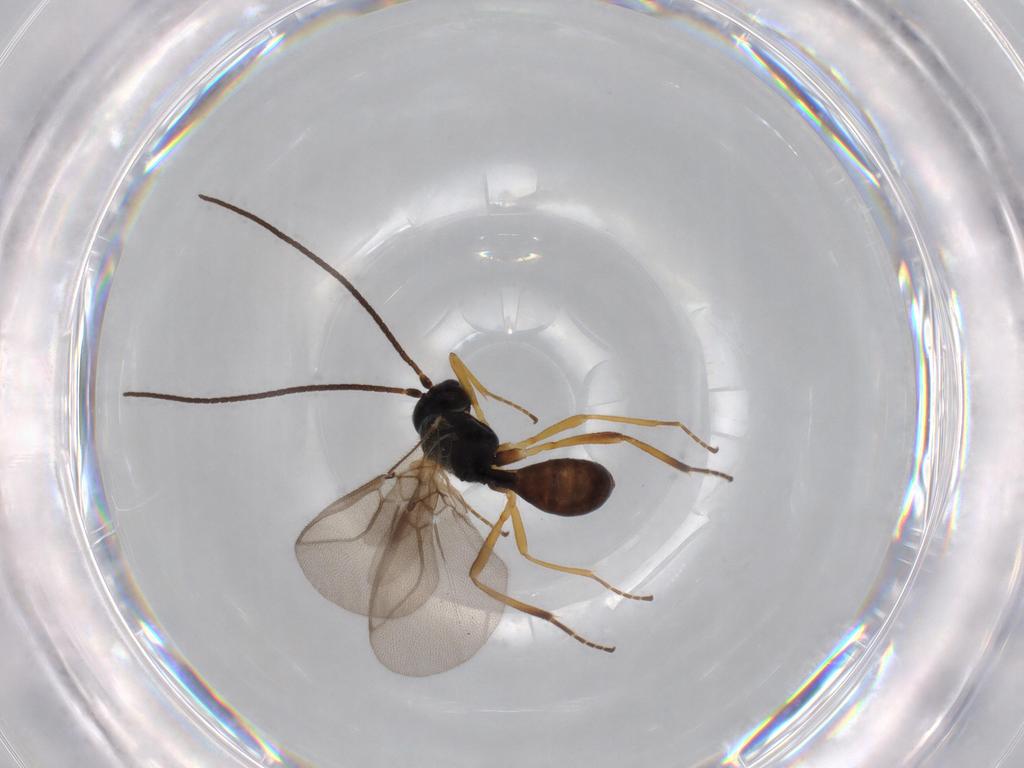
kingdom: Animalia
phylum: Arthropoda
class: Insecta
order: Hymenoptera
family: Braconidae
